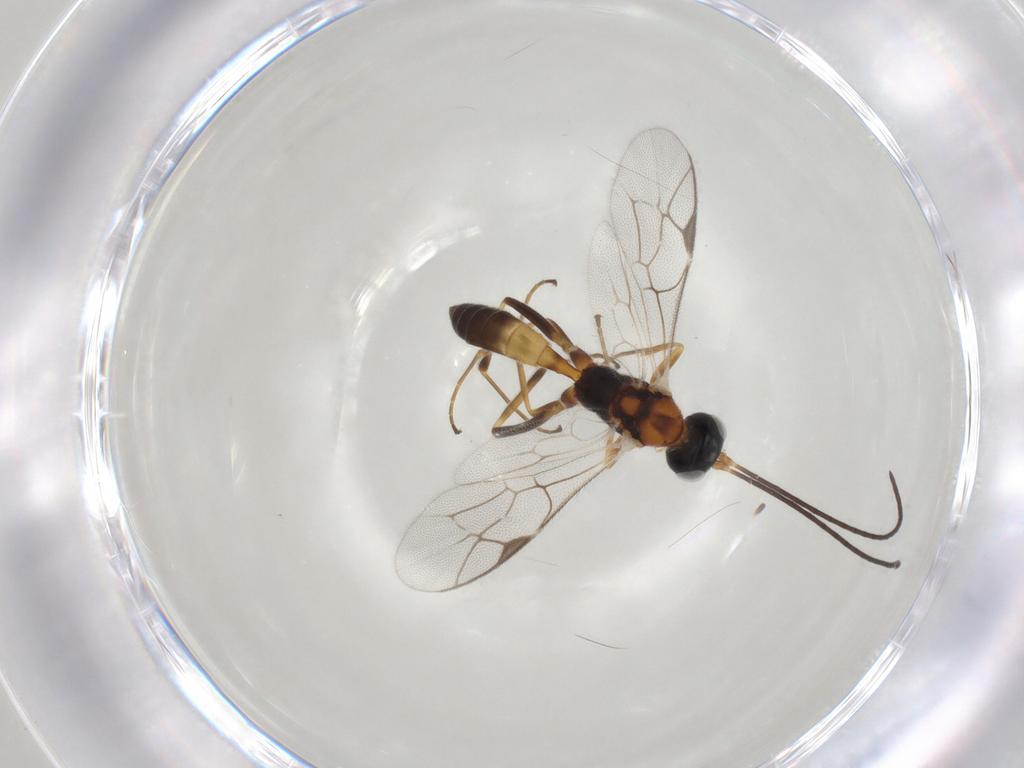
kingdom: Animalia
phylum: Arthropoda
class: Insecta
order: Hymenoptera
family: Ichneumonidae
